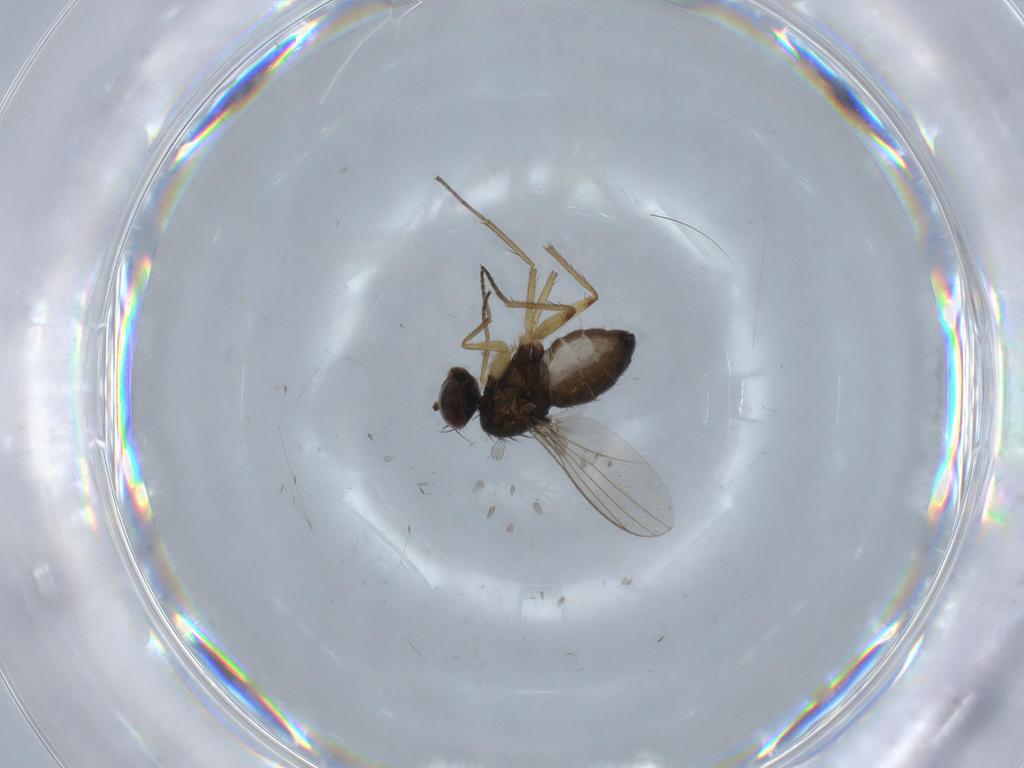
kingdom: Animalia
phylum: Arthropoda
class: Insecta
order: Diptera
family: Dolichopodidae
